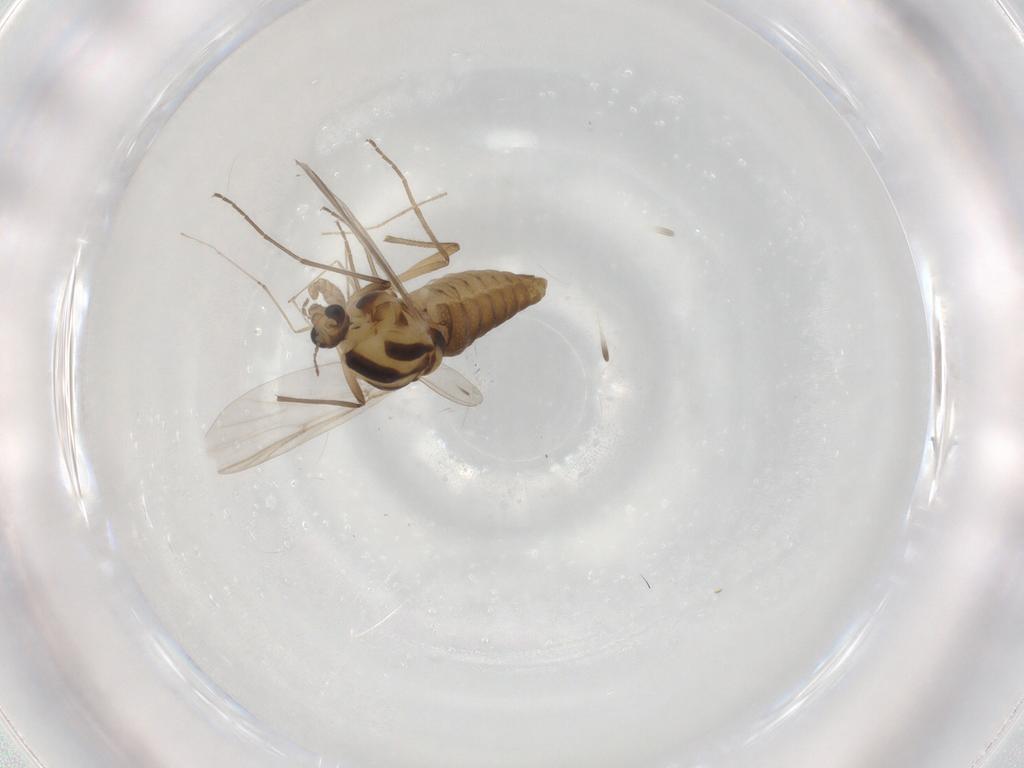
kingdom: Animalia
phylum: Arthropoda
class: Insecta
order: Diptera
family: Chironomidae
